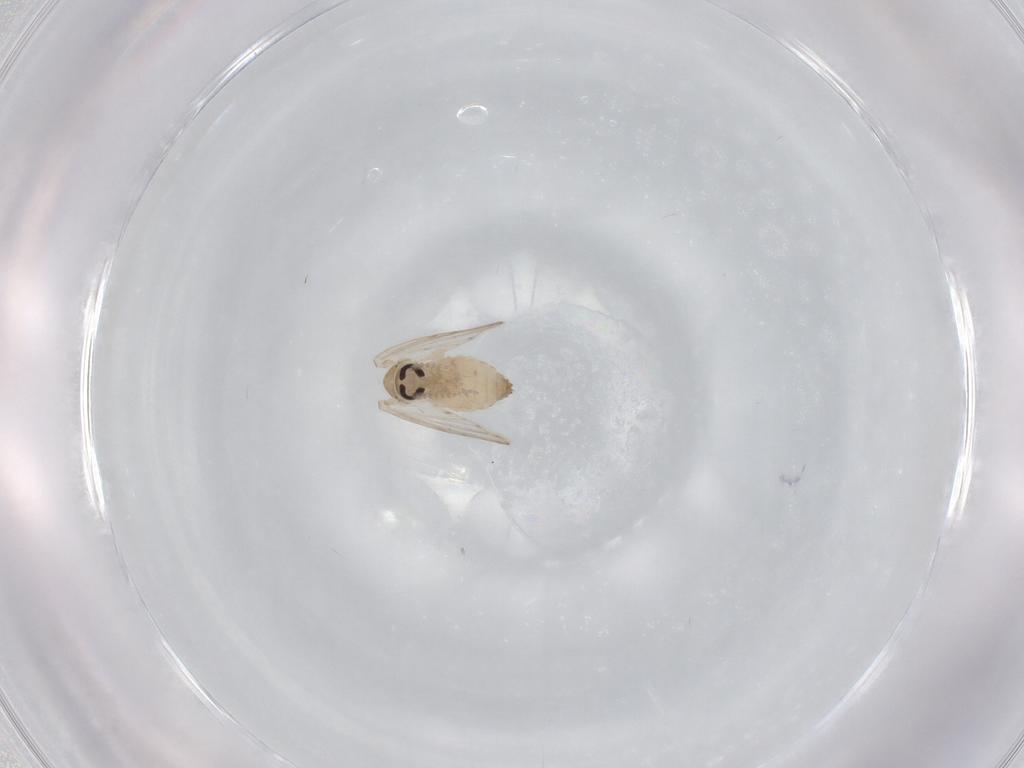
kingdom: Animalia
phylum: Arthropoda
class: Insecta
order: Diptera
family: Psychodidae
